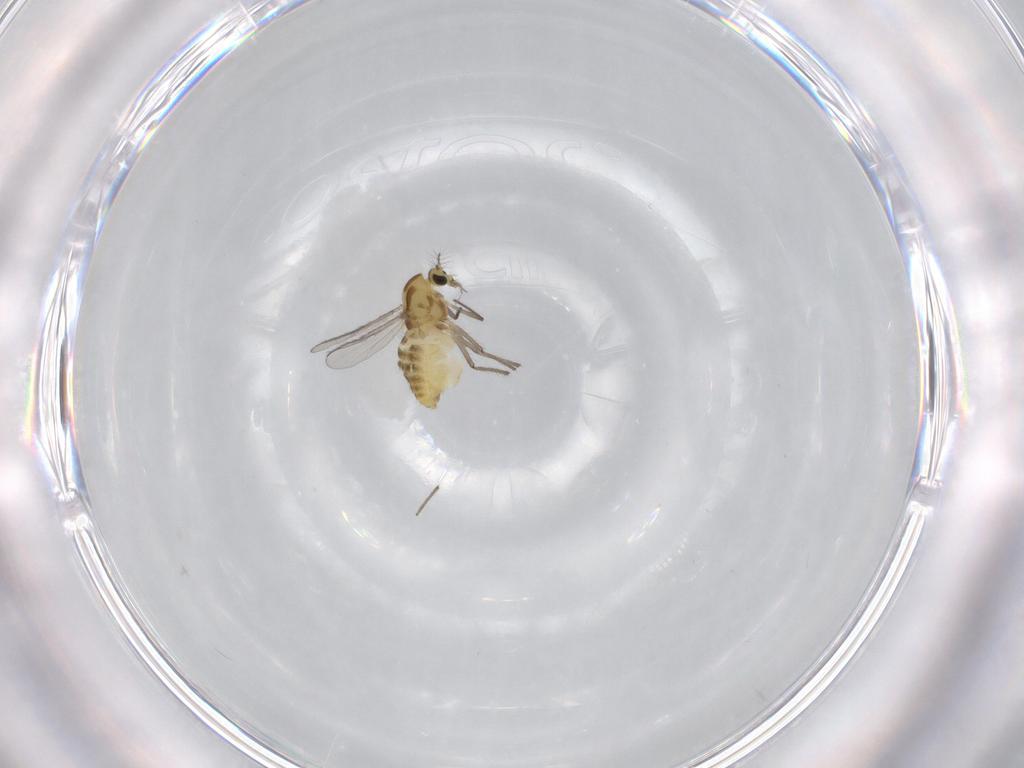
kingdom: Animalia
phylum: Arthropoda
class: Insecta
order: Diptera
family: Chironomidae
